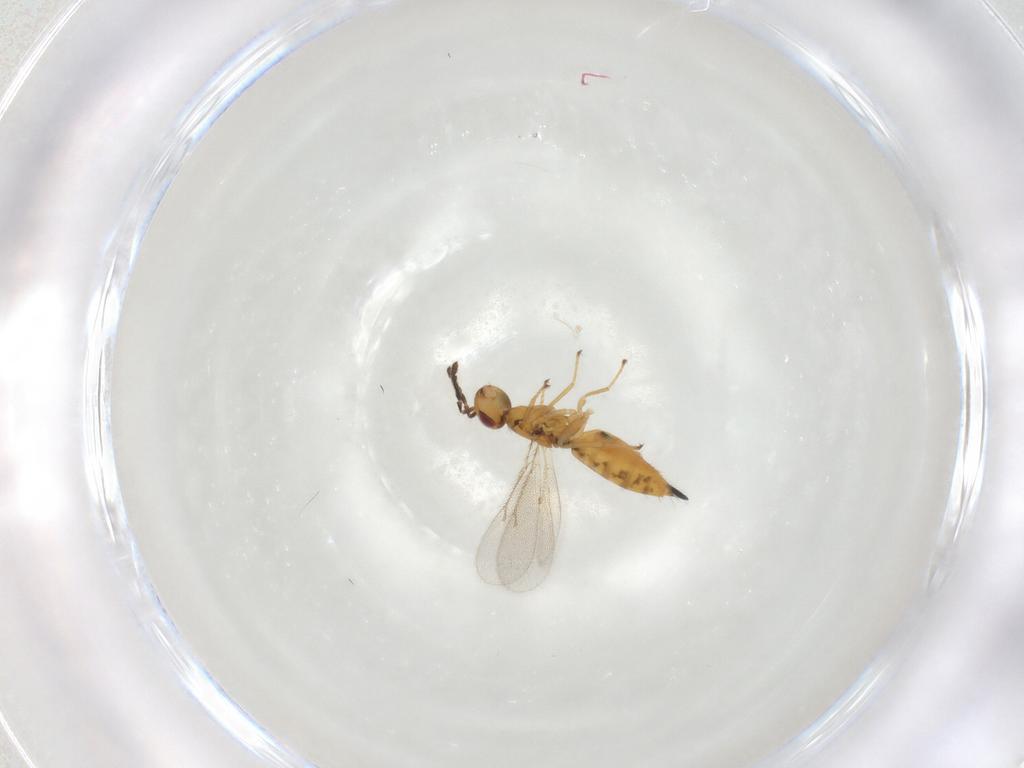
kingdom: Animalia
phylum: Arthropoda
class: Insecta
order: Hymenoptera
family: Eulophidae
